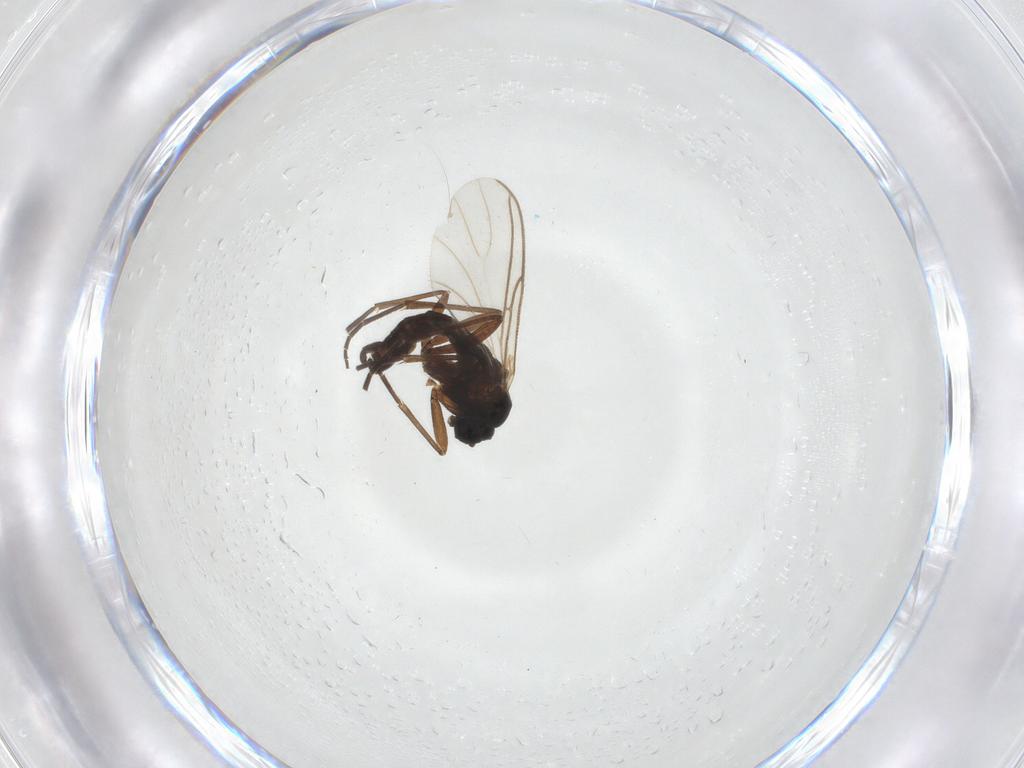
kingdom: Animalia
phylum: Arthropoda
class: Insecta
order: Diptera
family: Sciaridae
